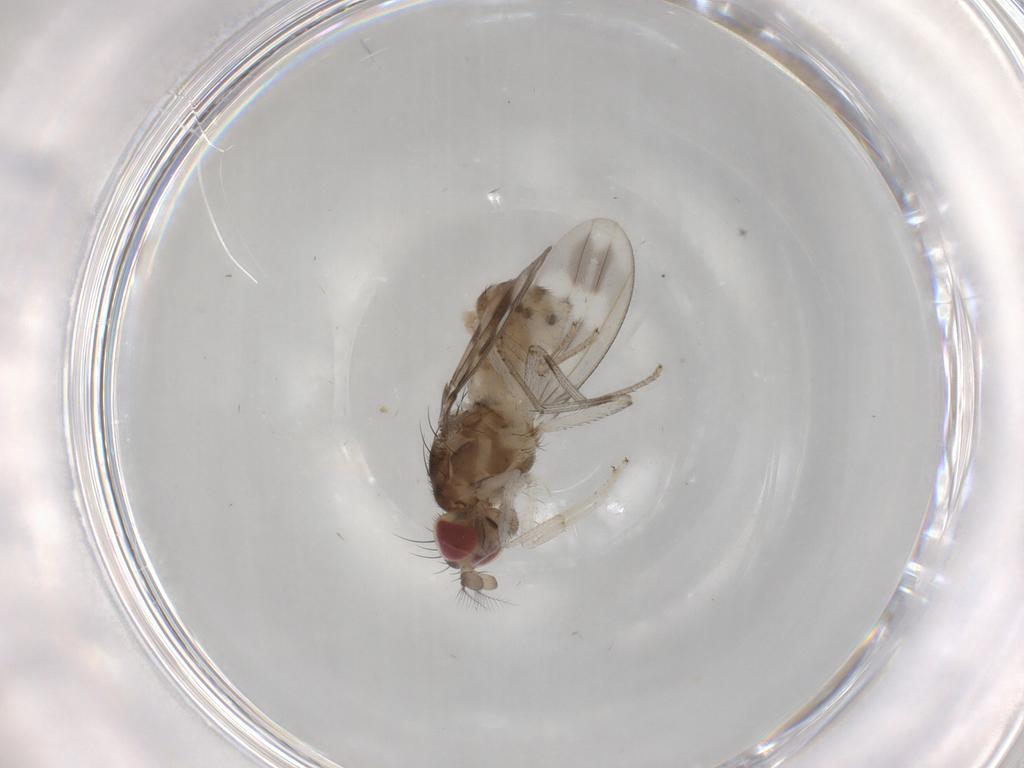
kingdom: Animalia
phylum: Arthropoda
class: Insecta
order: Diptera
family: Lauxaniidae
